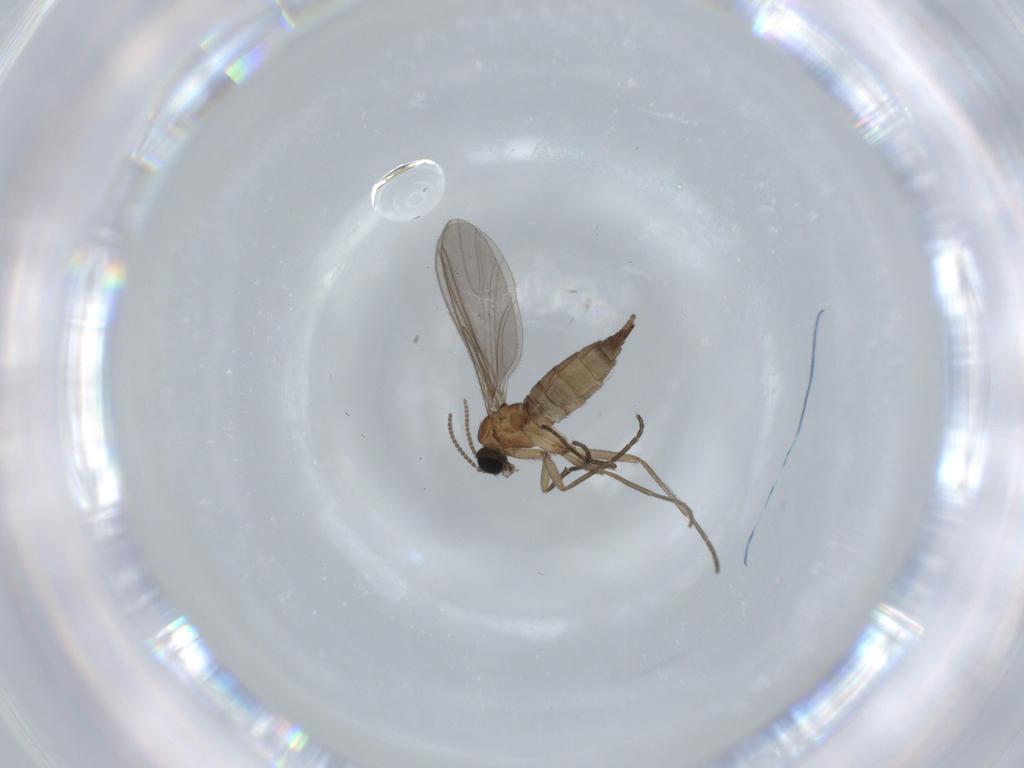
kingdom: Animalia
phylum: Arthropoda
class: Insecta
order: Diptera
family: Sciaridae
